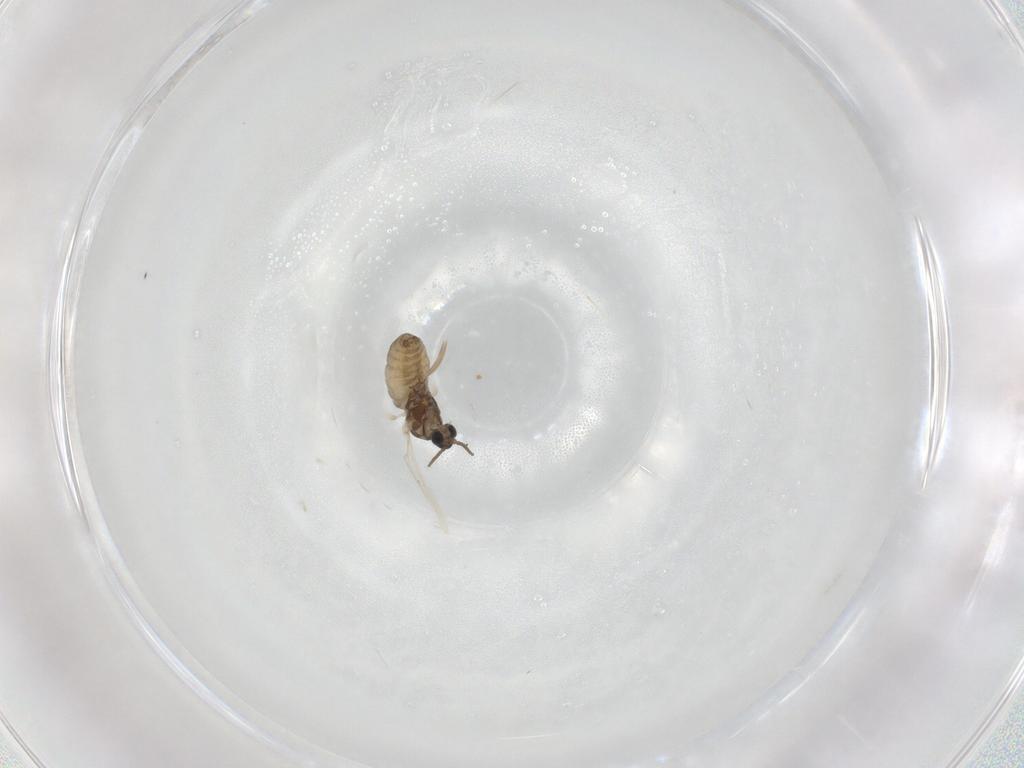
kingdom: Animalia
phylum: Arthropoda
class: Insecta
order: Diptera
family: Cecidomyiidae
